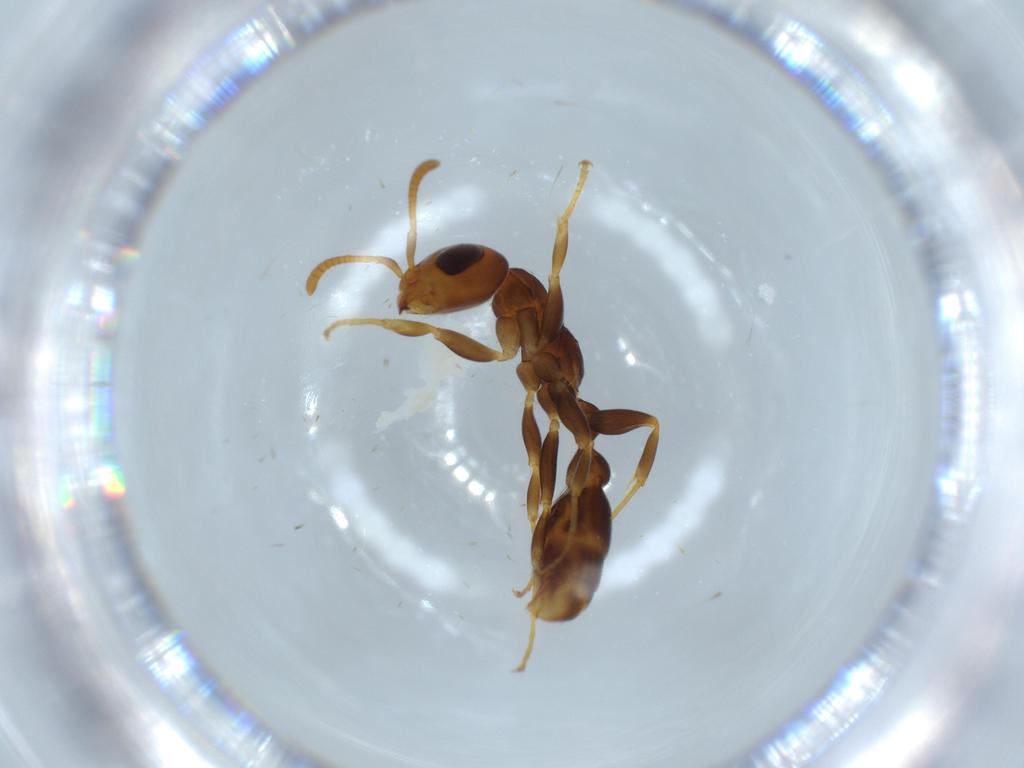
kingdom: Animalia
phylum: Arthropoda
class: Insecta
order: Hymenoptera
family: Formicidae
